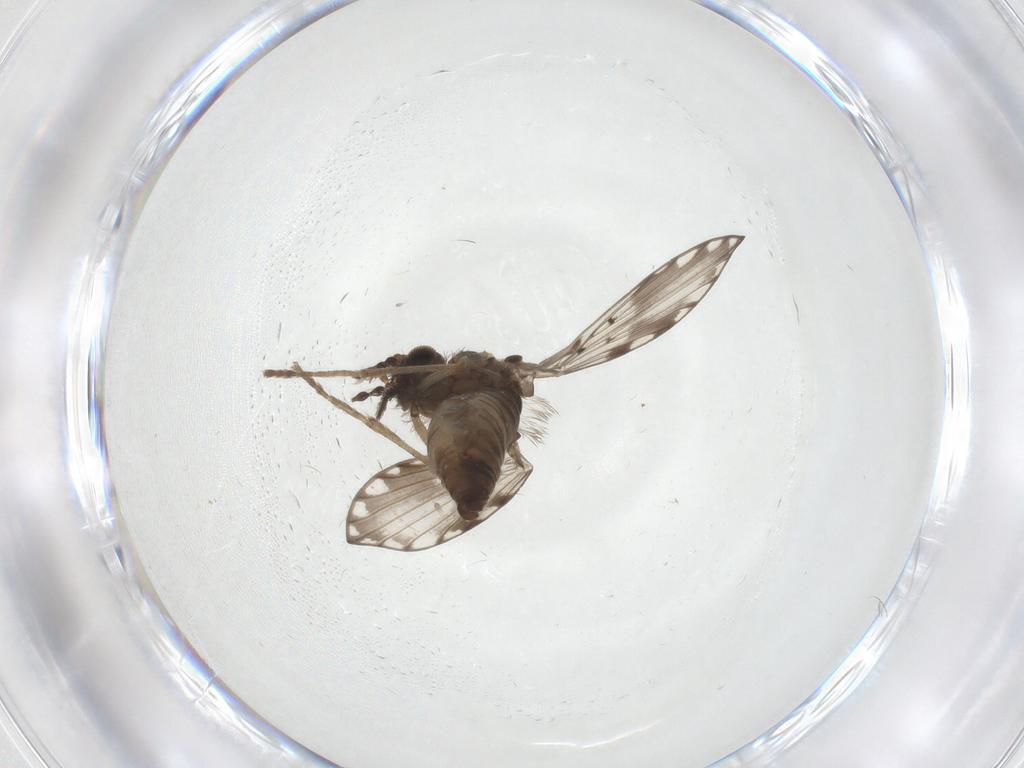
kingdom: Animalia
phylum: Arthropoda
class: Insecta
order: Diptera
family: Psychodidae
